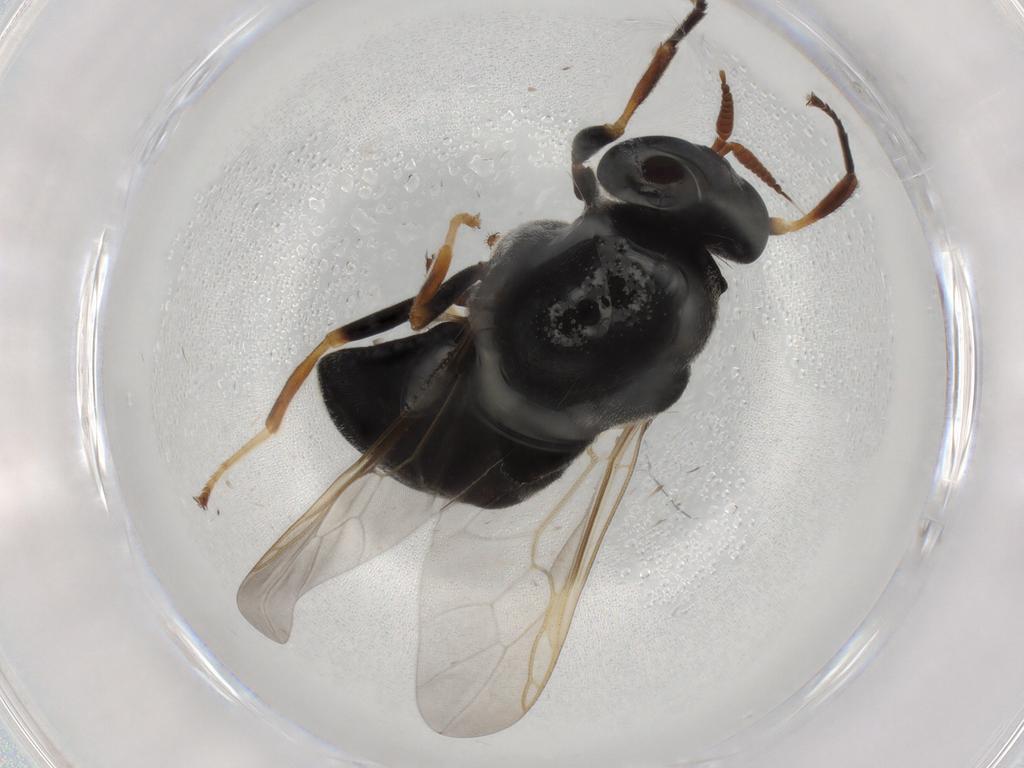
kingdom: Animalia
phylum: Arthropoda
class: Insecta
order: Diptera
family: Stratiomyidae
